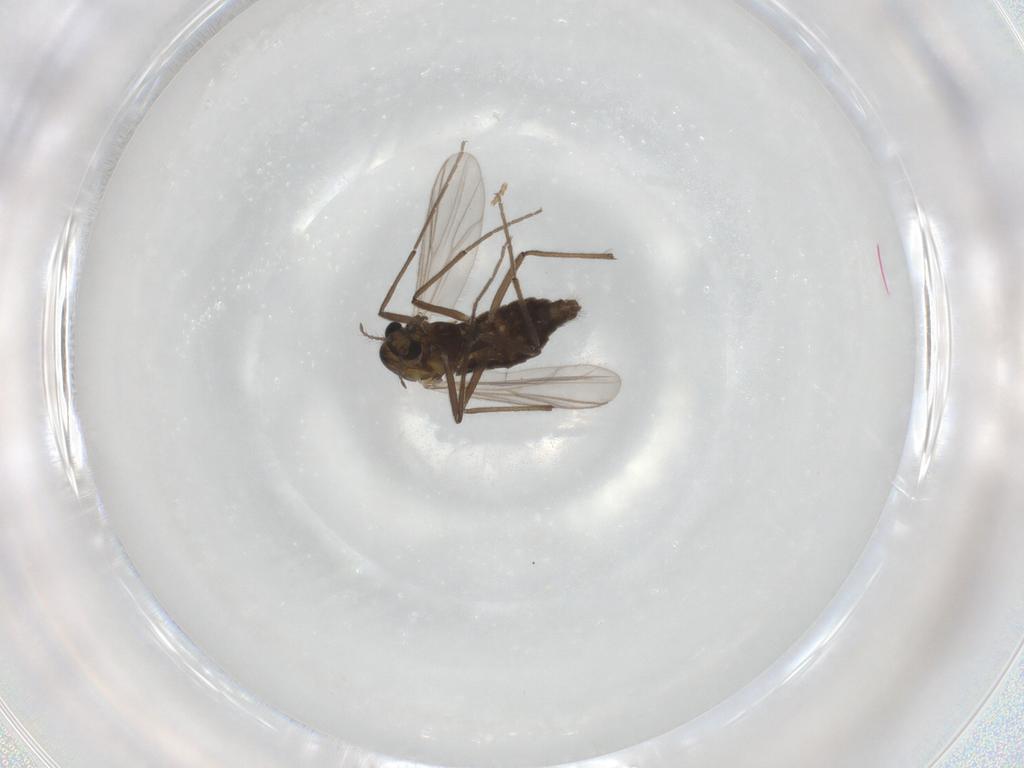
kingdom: Animalia
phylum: Arthropoda
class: Insecta
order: Diptera
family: Chironomidae
